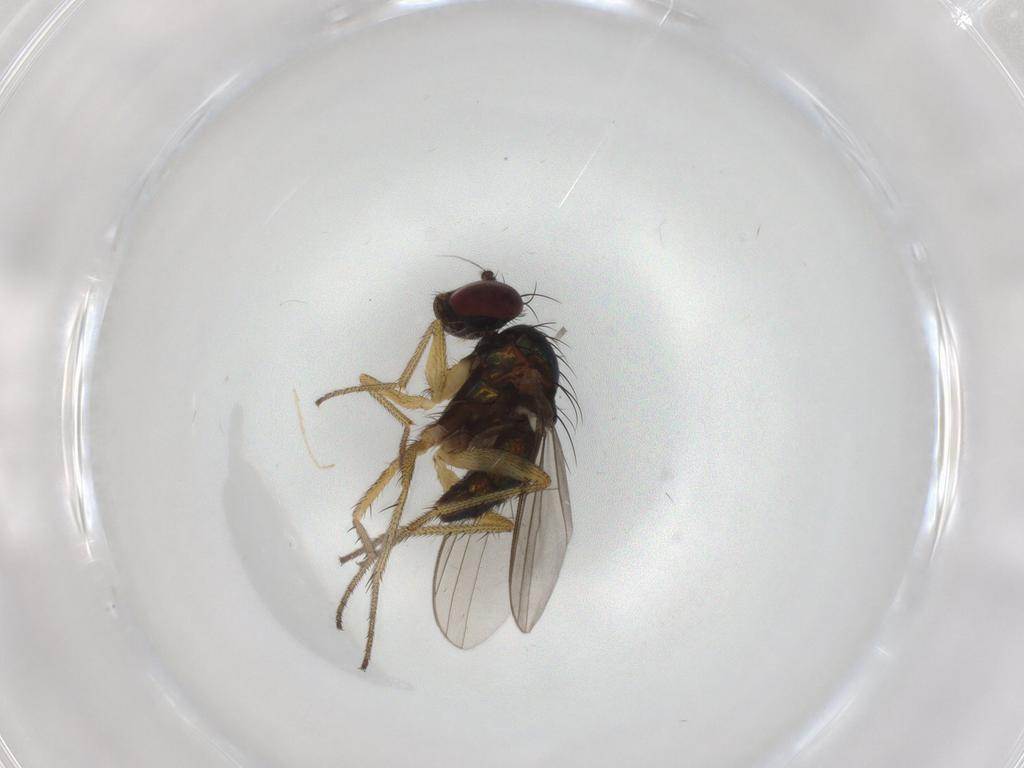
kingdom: Animalia
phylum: Arthropoda
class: Insecta
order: Diptera
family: Dolichopodidae
